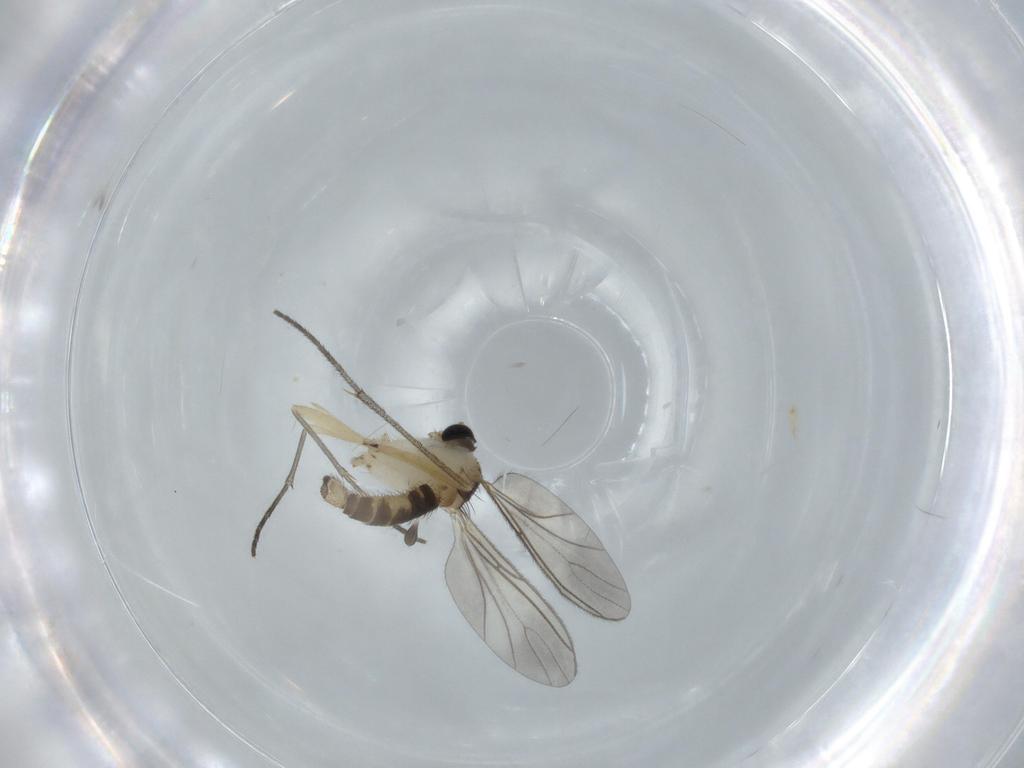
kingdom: Animalia
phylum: Arthropoda
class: Insecta
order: Diptera
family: Sciaridae
